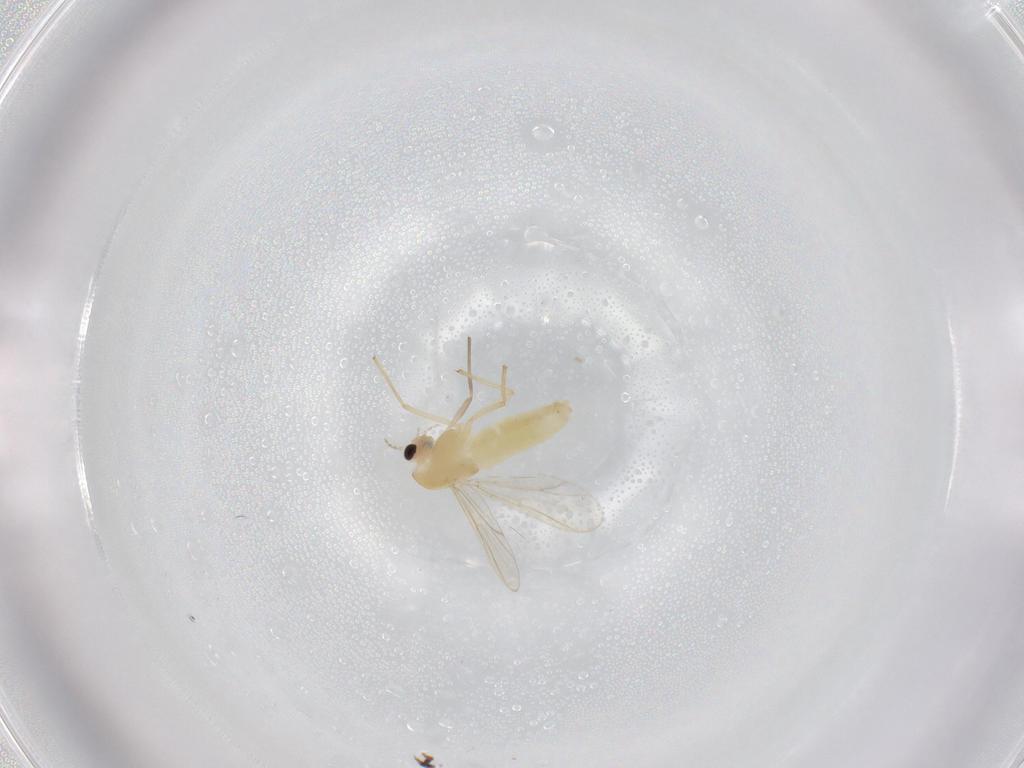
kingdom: Animalia
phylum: Arthropoda
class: Insecta
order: Diptera
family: Chironomidae
